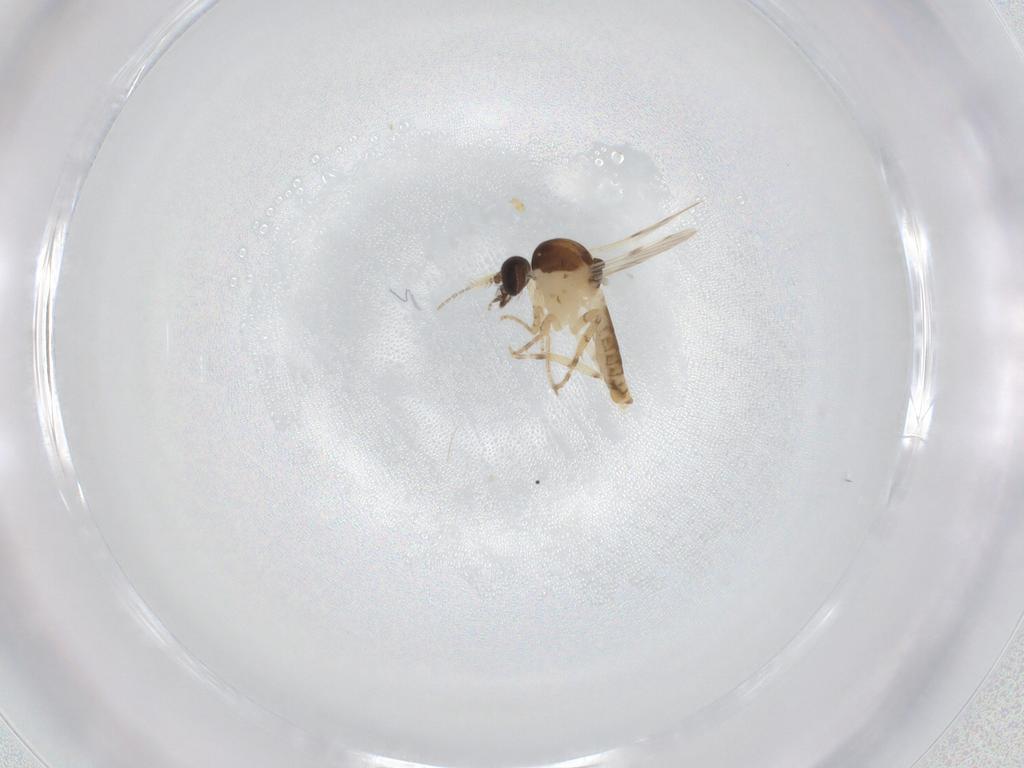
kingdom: Animalia
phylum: Arthropoda
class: Insecta
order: Diptera
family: Ceratopogonidae
